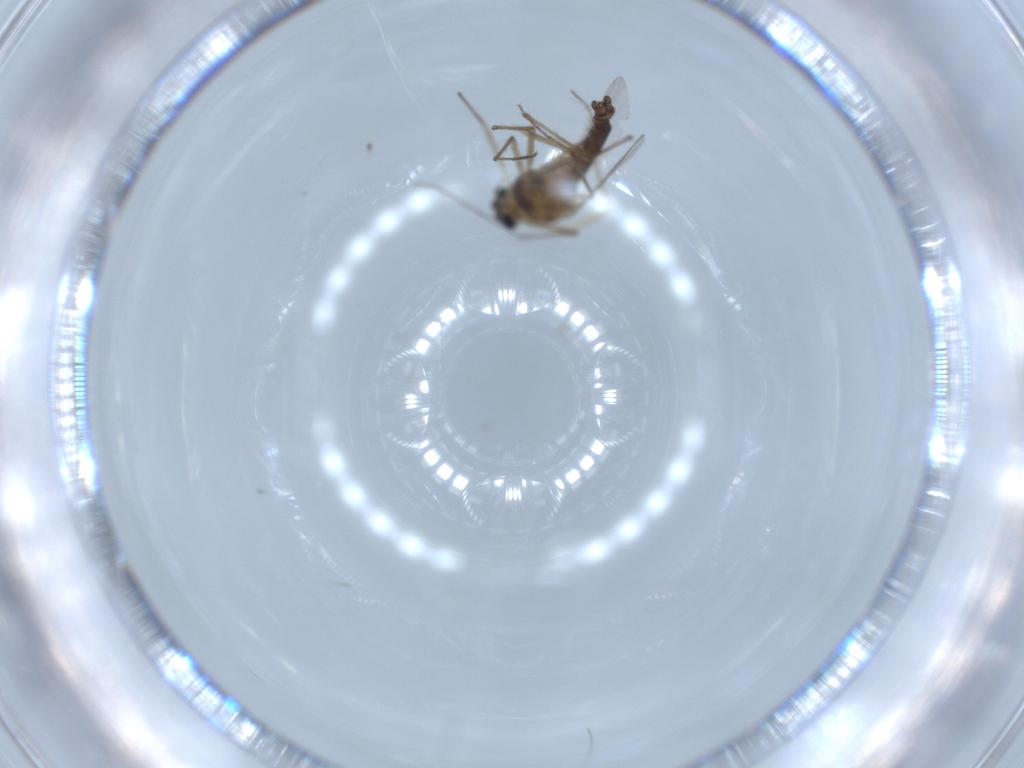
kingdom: Animalia
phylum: Arthropoda
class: Insecta
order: Diptera
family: Chironomidae
